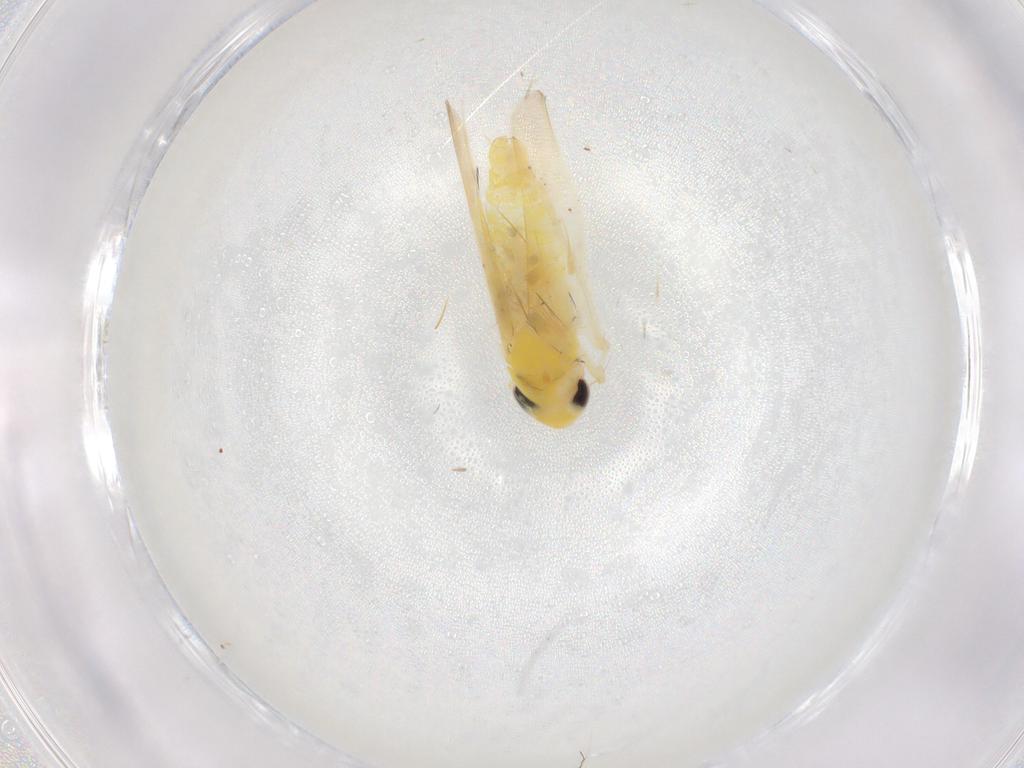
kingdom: Animalia
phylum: Arthropoda
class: Insecta
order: Hemiptera
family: Cicadellidae
